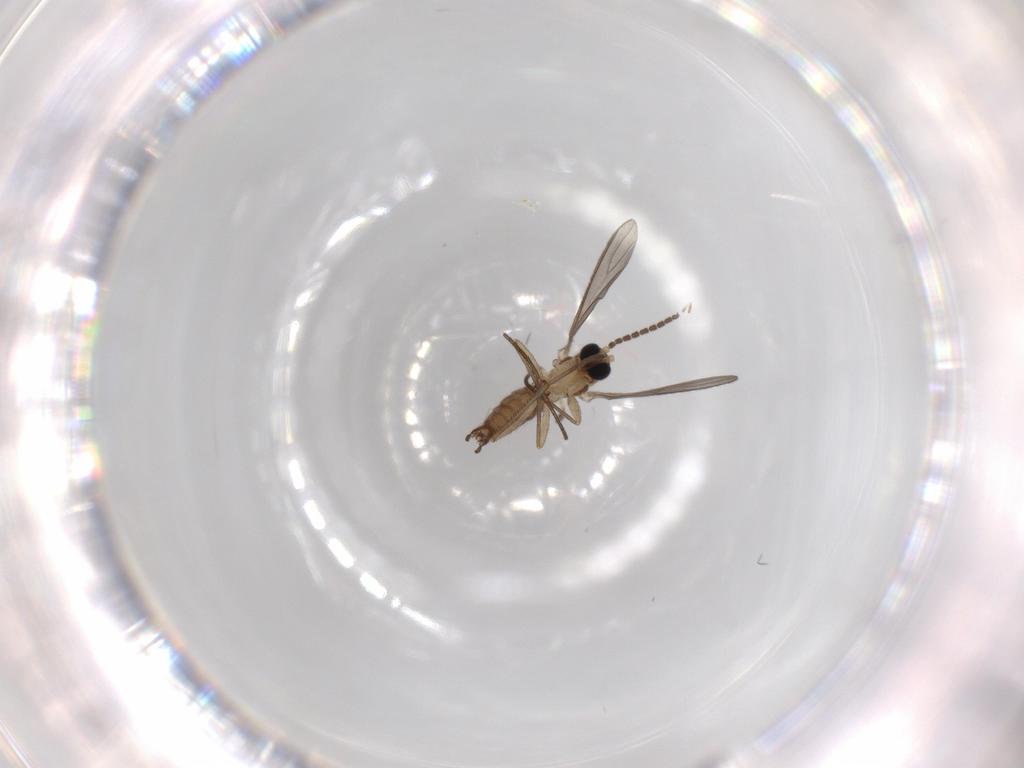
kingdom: Animalia
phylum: Arthropoda
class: Insecta
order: Diptera
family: Sciaridae
